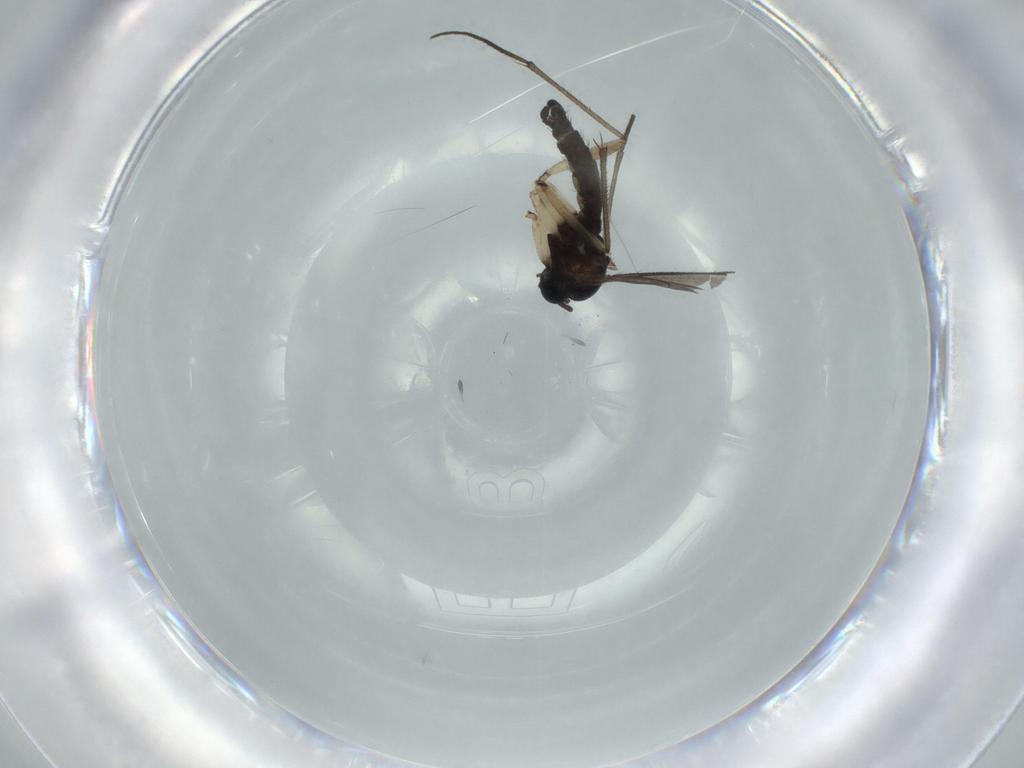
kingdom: Animalia
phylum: Arthropoda
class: Insecta
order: Diptera
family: Sciaridae
